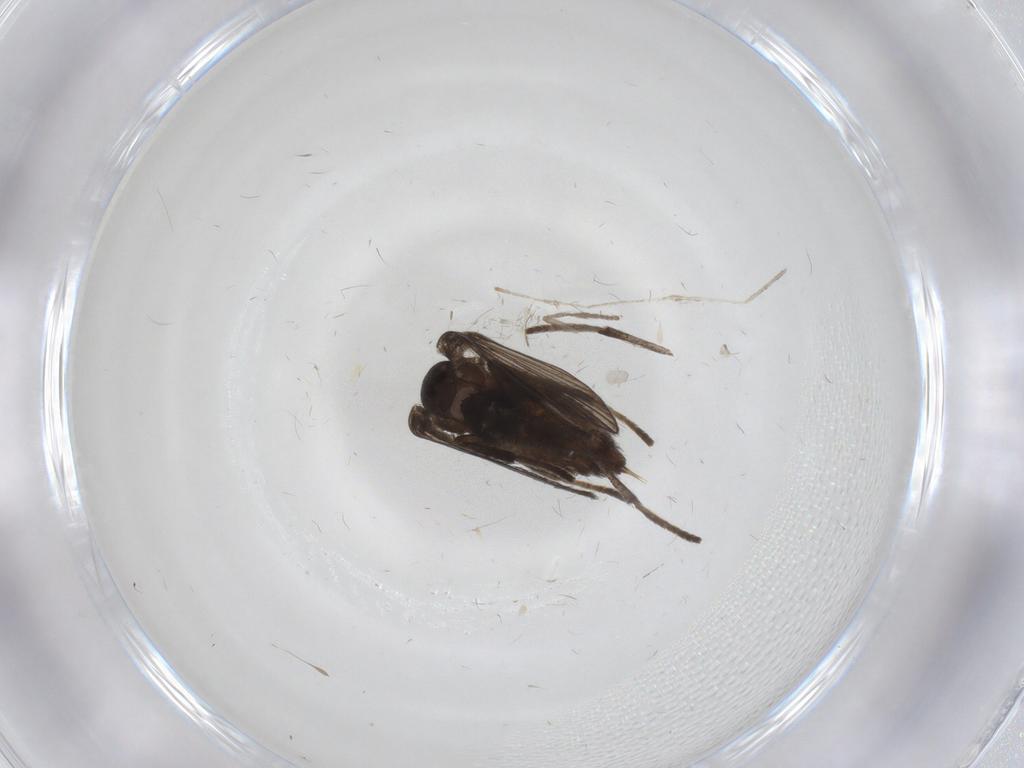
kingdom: Animalia
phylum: Arthropoda
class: Insecta
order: Diptera
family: Psychodidae
